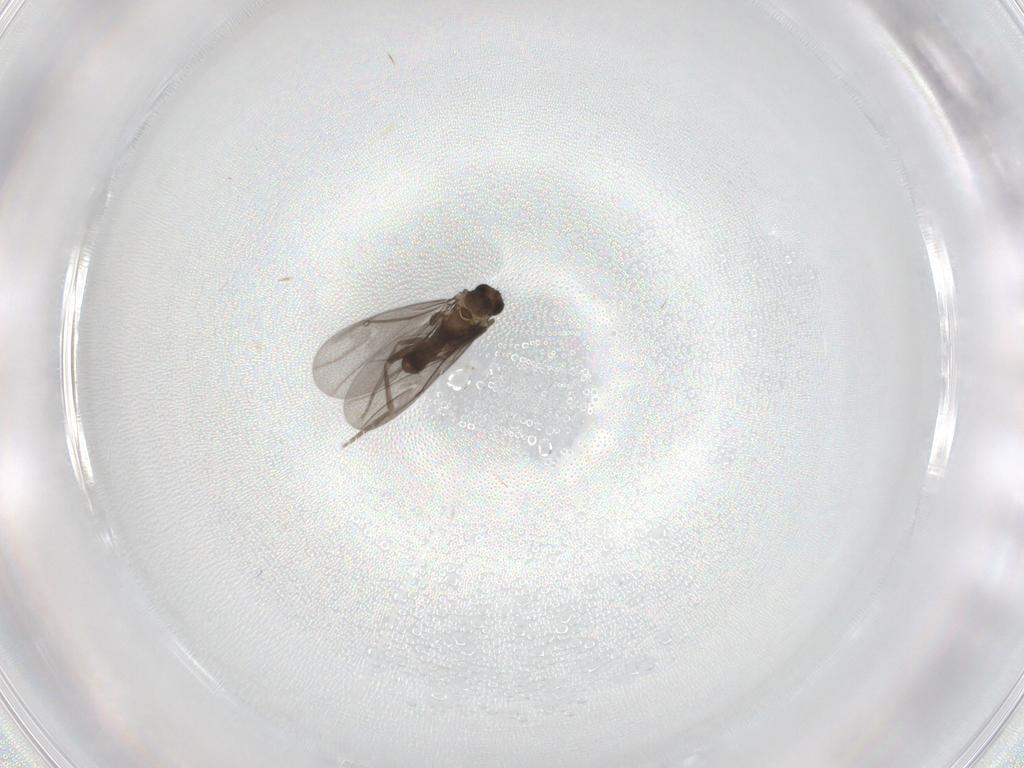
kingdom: Animalia
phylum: Arthropoda
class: Insecta
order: Diptera
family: Phoridae
